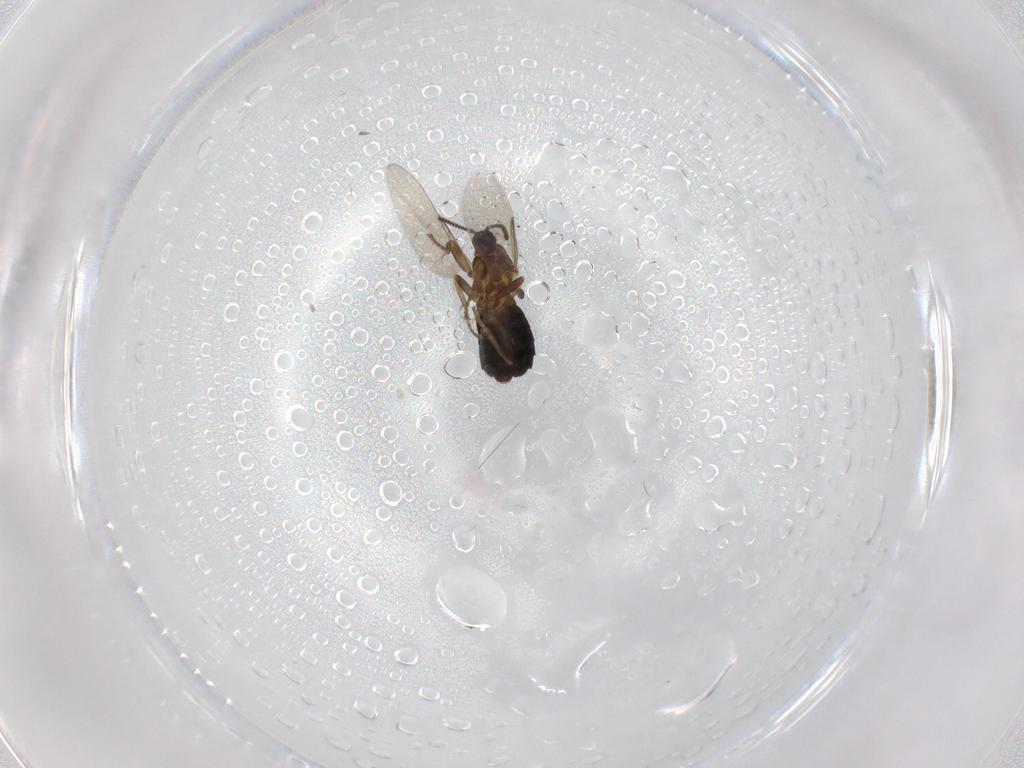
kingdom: Animalia
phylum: Arthropoda
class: Insecta
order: Diptera
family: Scatopsidae
